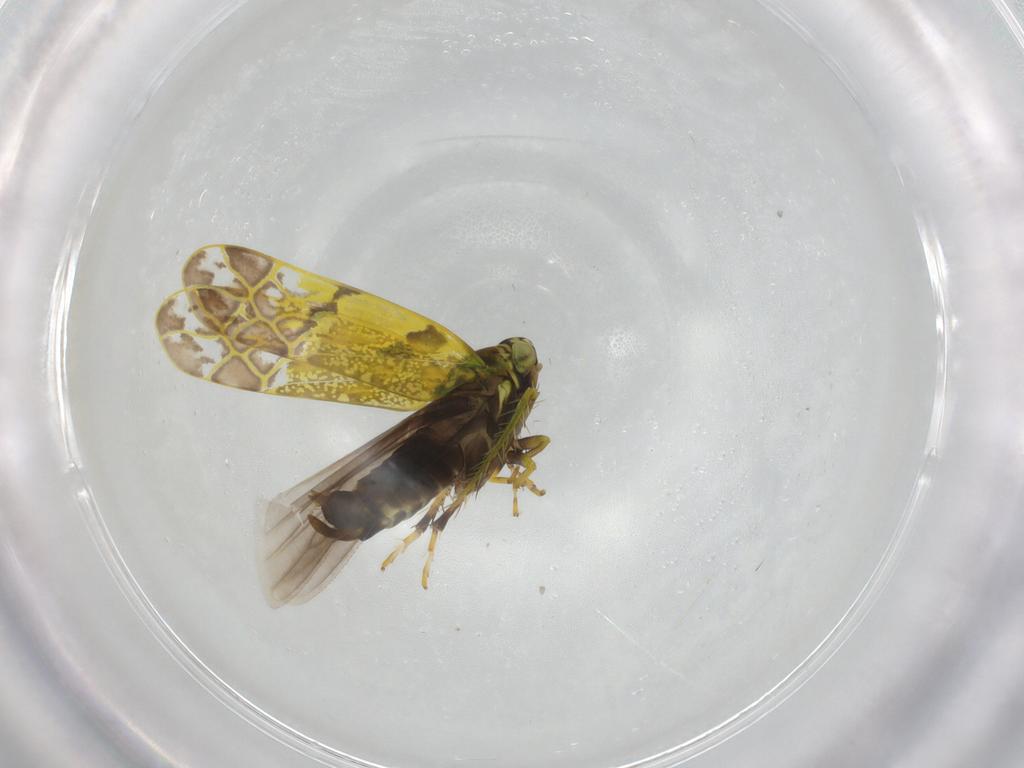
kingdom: Animalia
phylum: Arthropoda
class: Insecta
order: Hemiptera
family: Cicadellidae
